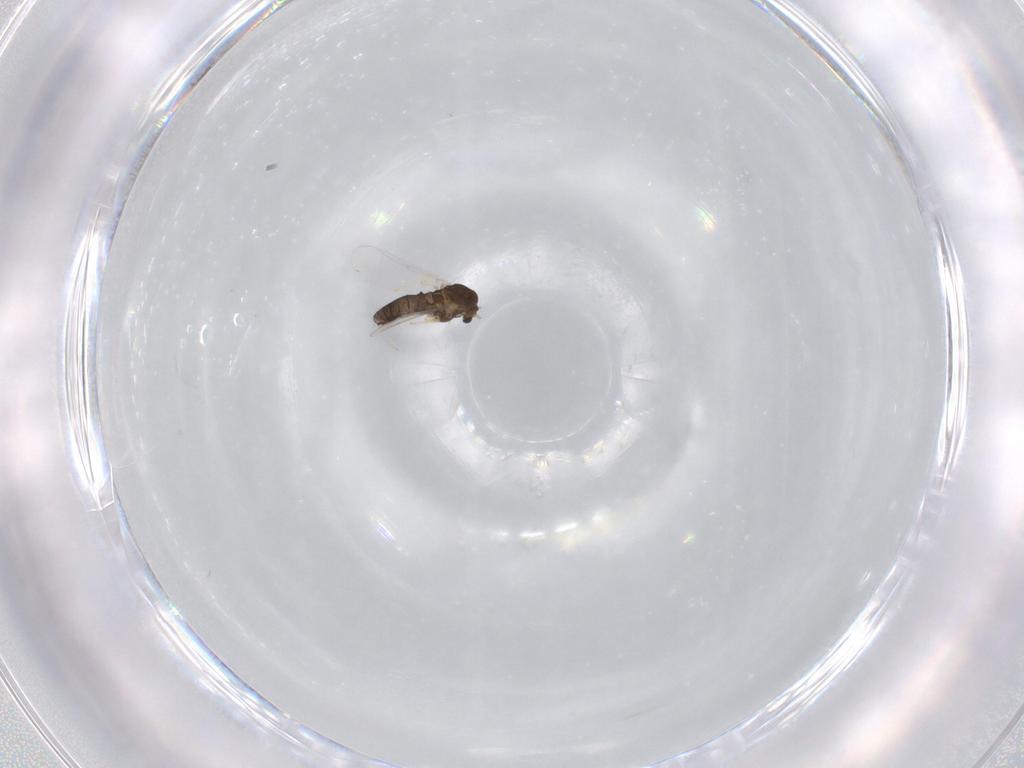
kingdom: Animalia
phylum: Arthropoda
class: Insecta
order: Diptera
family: Chironomidae
